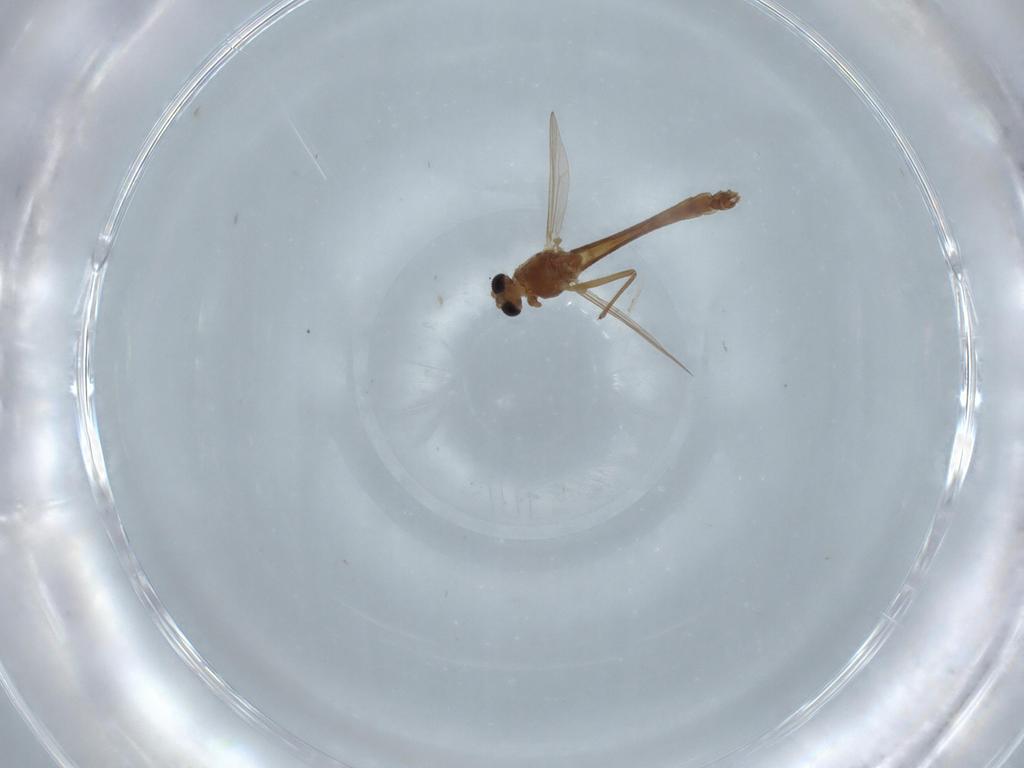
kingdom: Animalia
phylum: Arthropoda
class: Insecta
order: Diptera
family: Chironomidae
